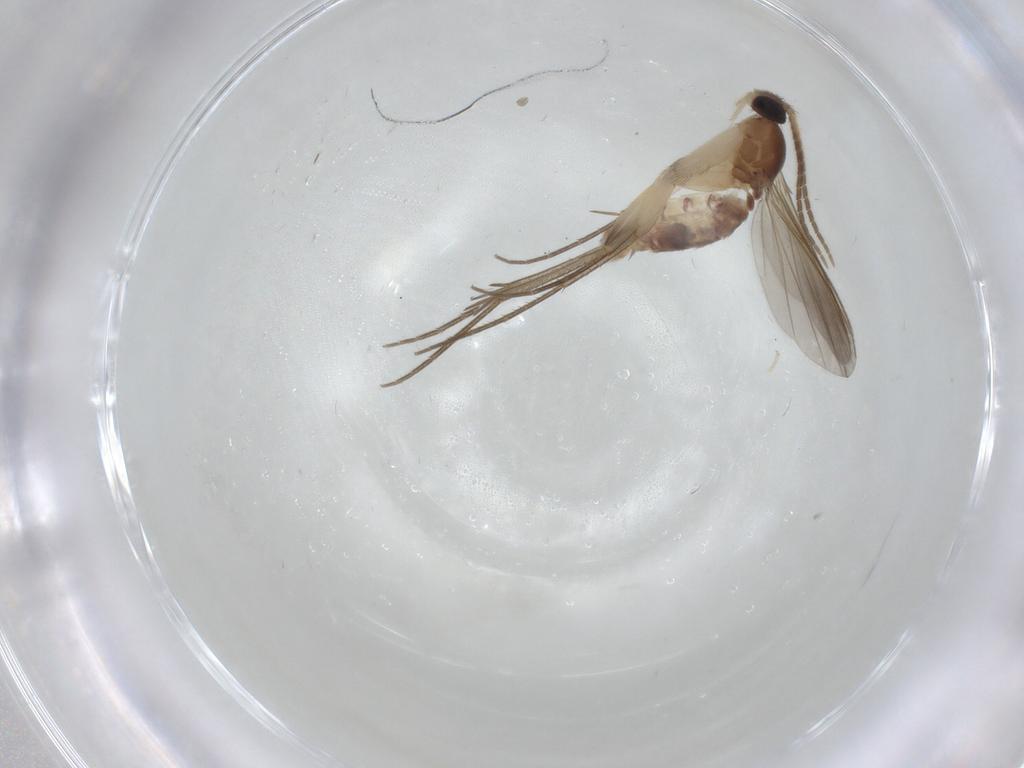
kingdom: Animalia
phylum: Arthropoda
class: Insecta
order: Diptera
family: Mycetophilidae
